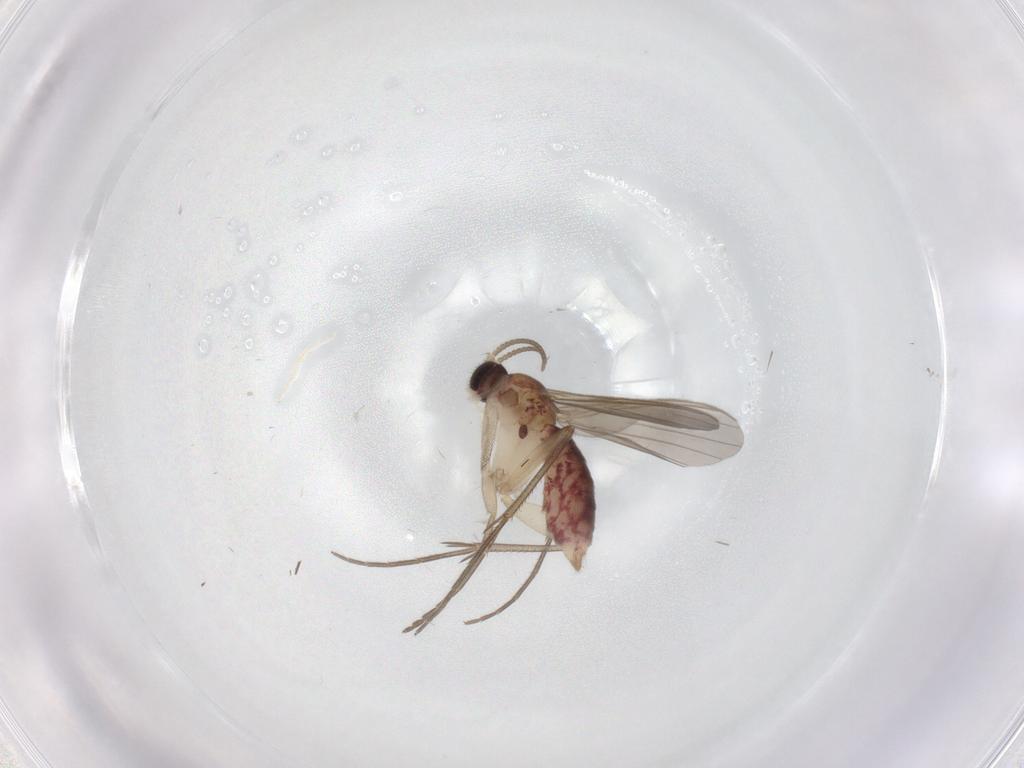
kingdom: Animalia
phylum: Arthropoda
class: Insecta
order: Diptera
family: Mycetophilidae
